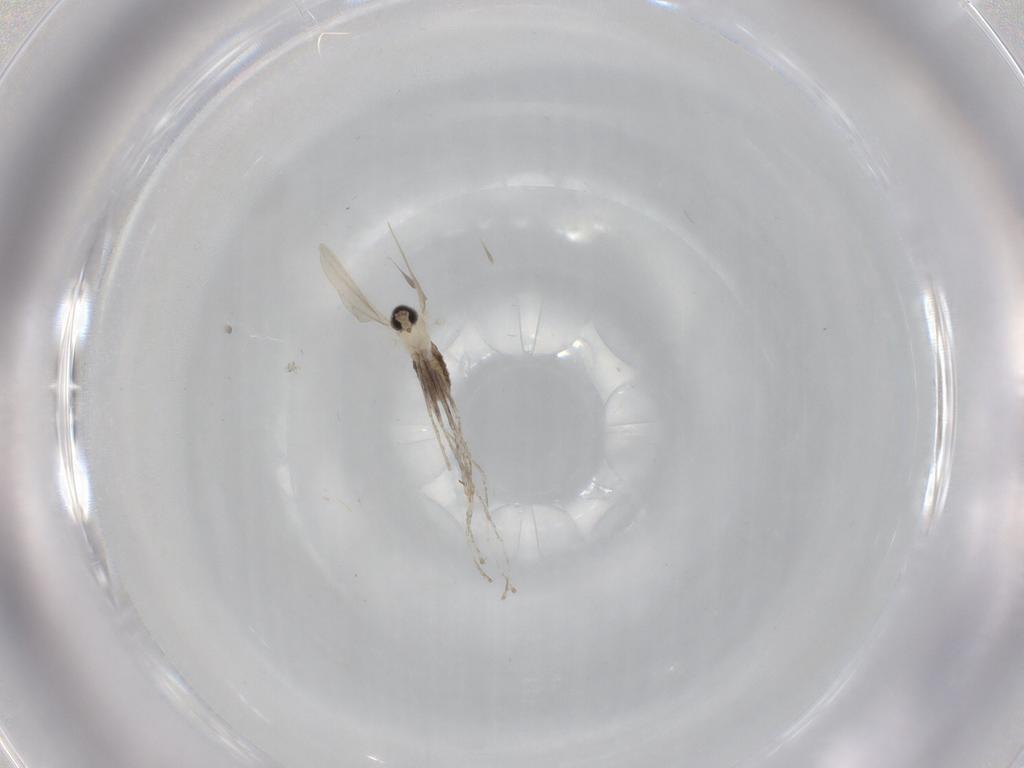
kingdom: Animalia
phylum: Arthropoda
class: Insecta
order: Diptera
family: Cecidomyiidae
